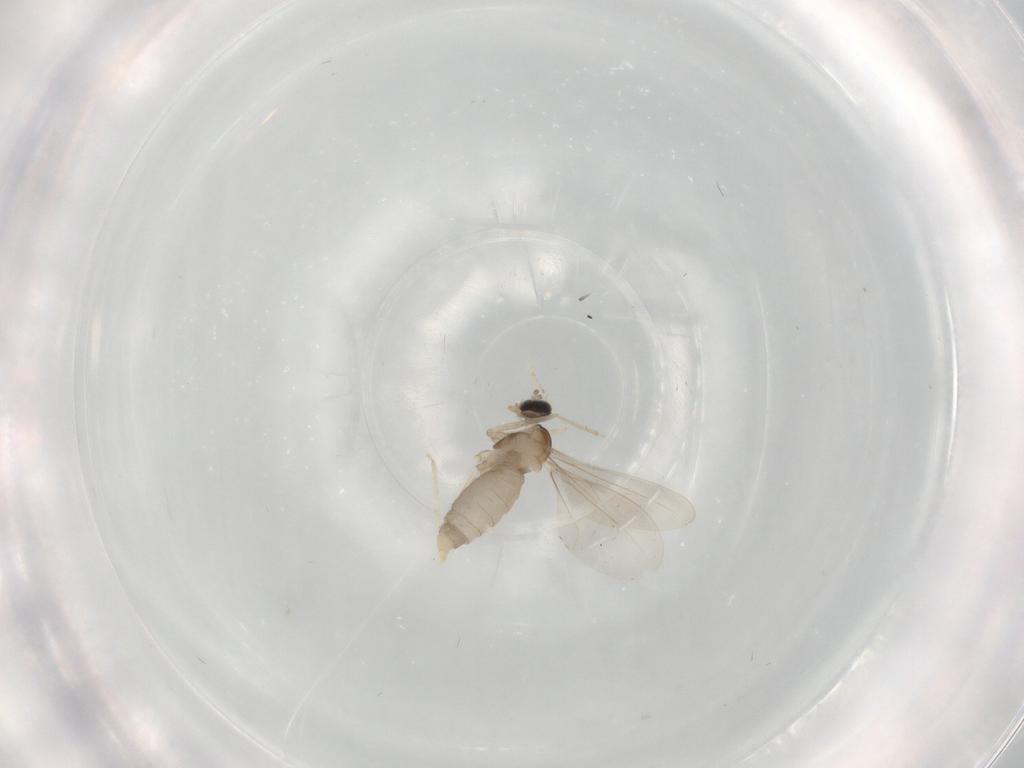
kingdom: Animalia
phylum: Arthropoda
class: Insecta
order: Diptera
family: Cecidomyiidae
